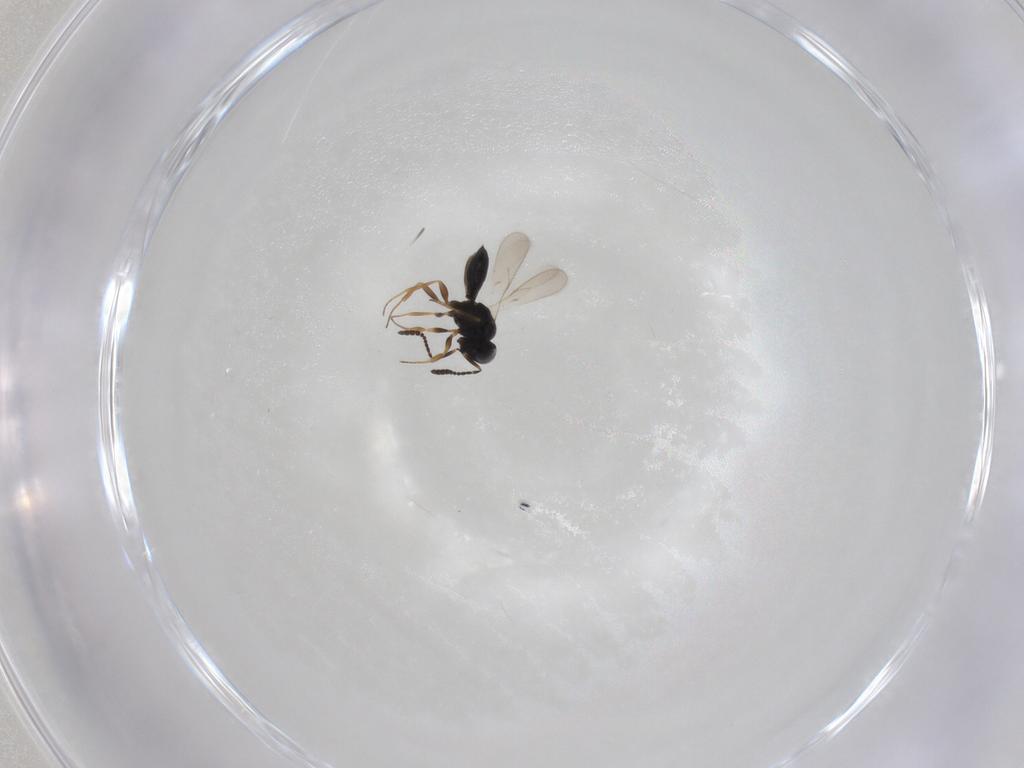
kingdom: Animalia
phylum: Arthropoda
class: Insecta
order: Hymenoptera
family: Scelionidae
